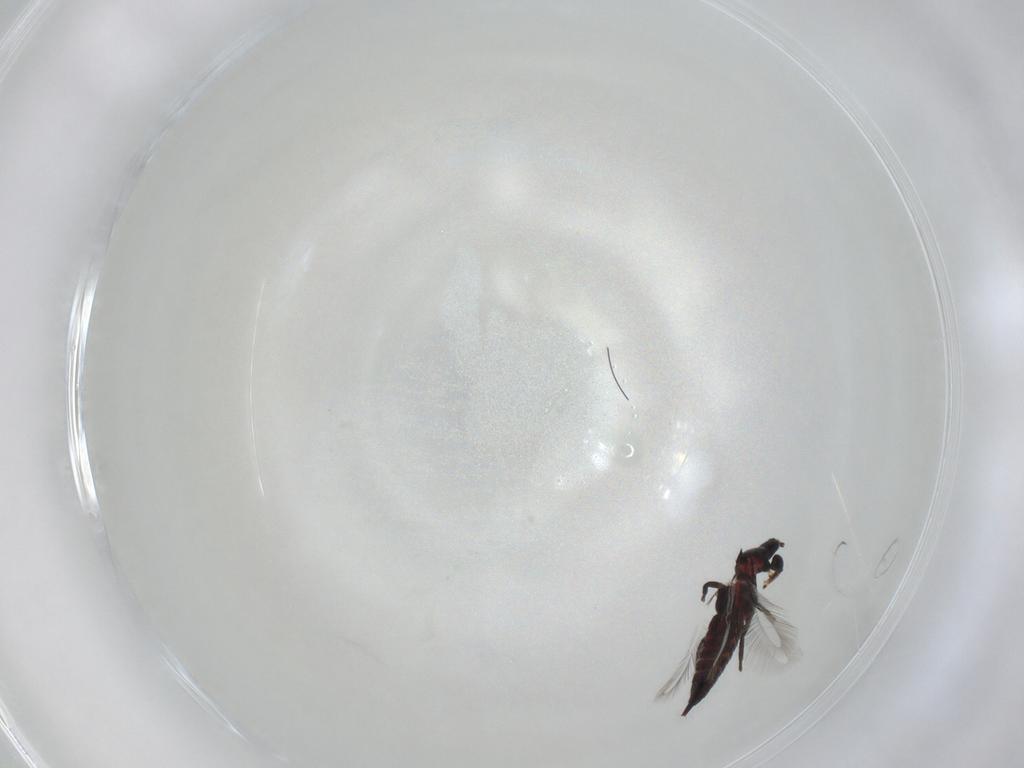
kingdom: Animalia
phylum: Arthropoda
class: Insecta
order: Thysanoptera
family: Phlaeothripidae
